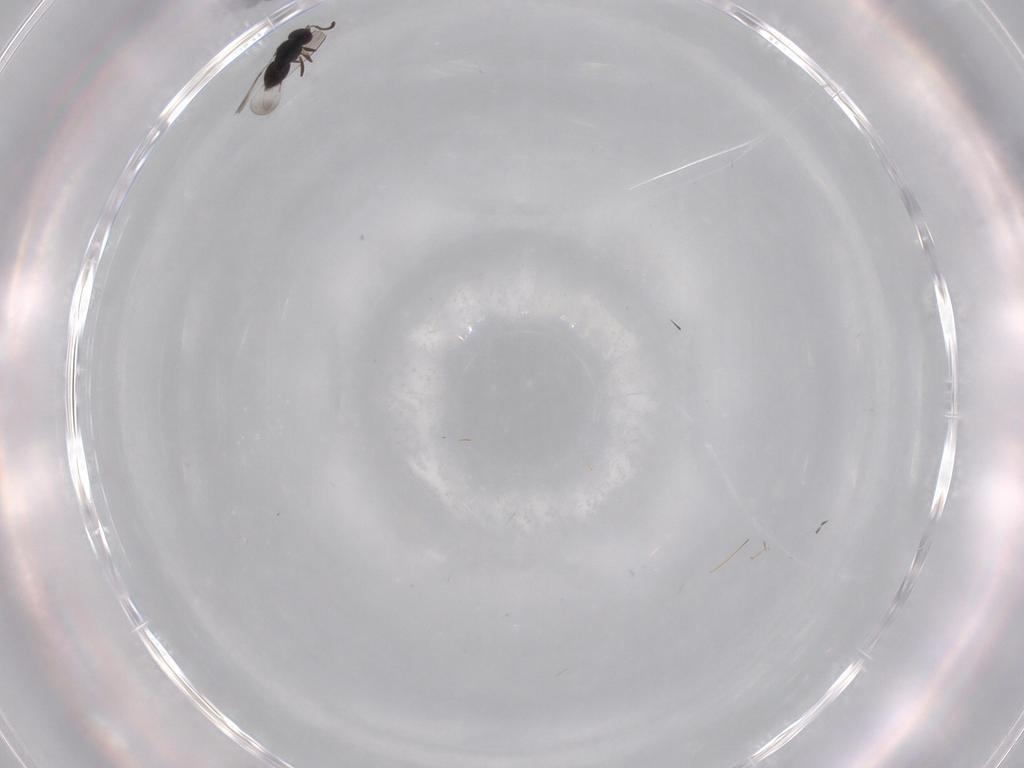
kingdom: Animalia
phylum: Arthropoda
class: Insecta
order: Hymenoptera
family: Ceraphronidae
